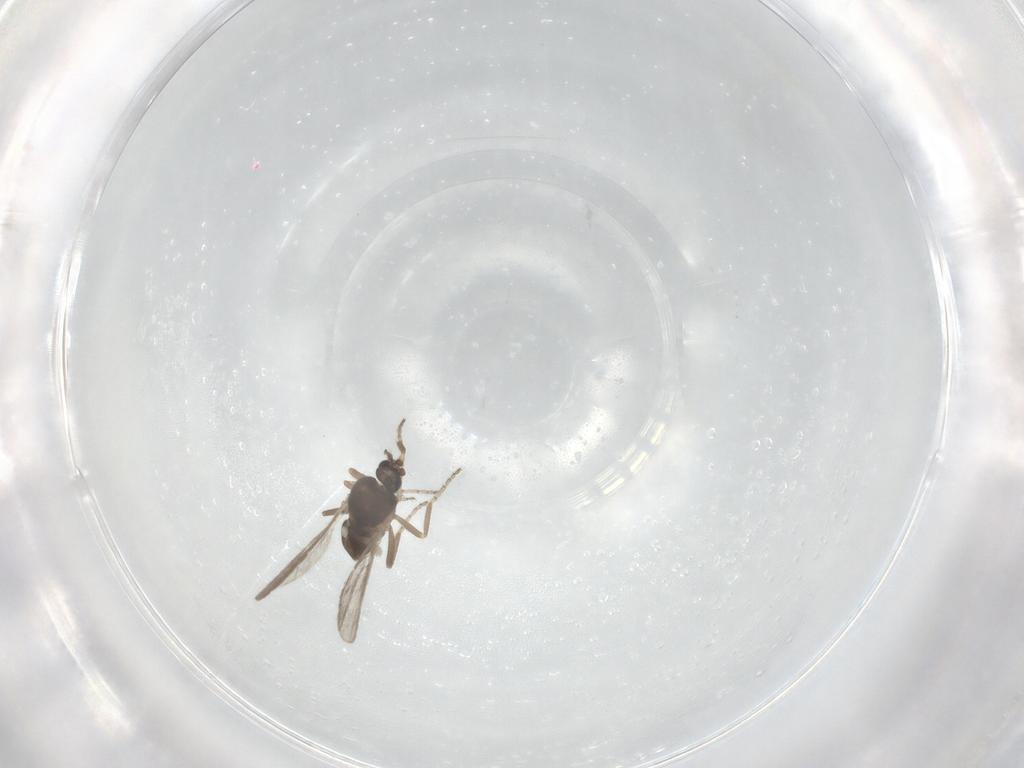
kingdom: Animalia
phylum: Arthropoda
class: Insecta
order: Diptera
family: Ceratopogonidae
